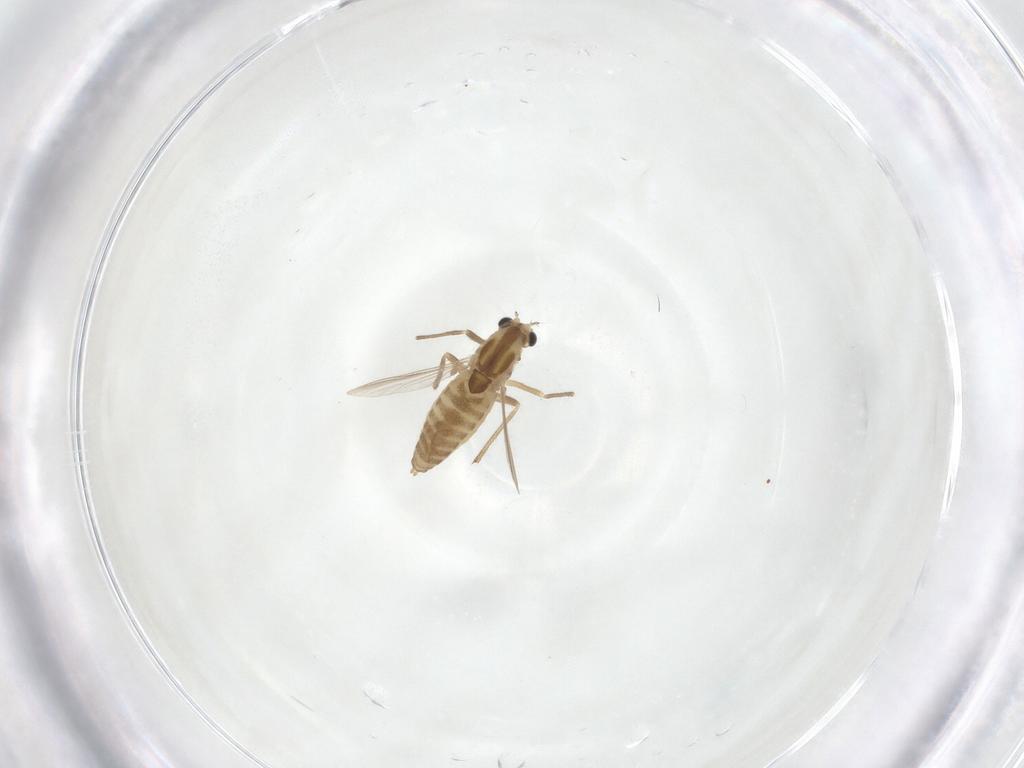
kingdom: Animalia
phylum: Arthropoda
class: Insecta
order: Diptera
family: Chironomidae
